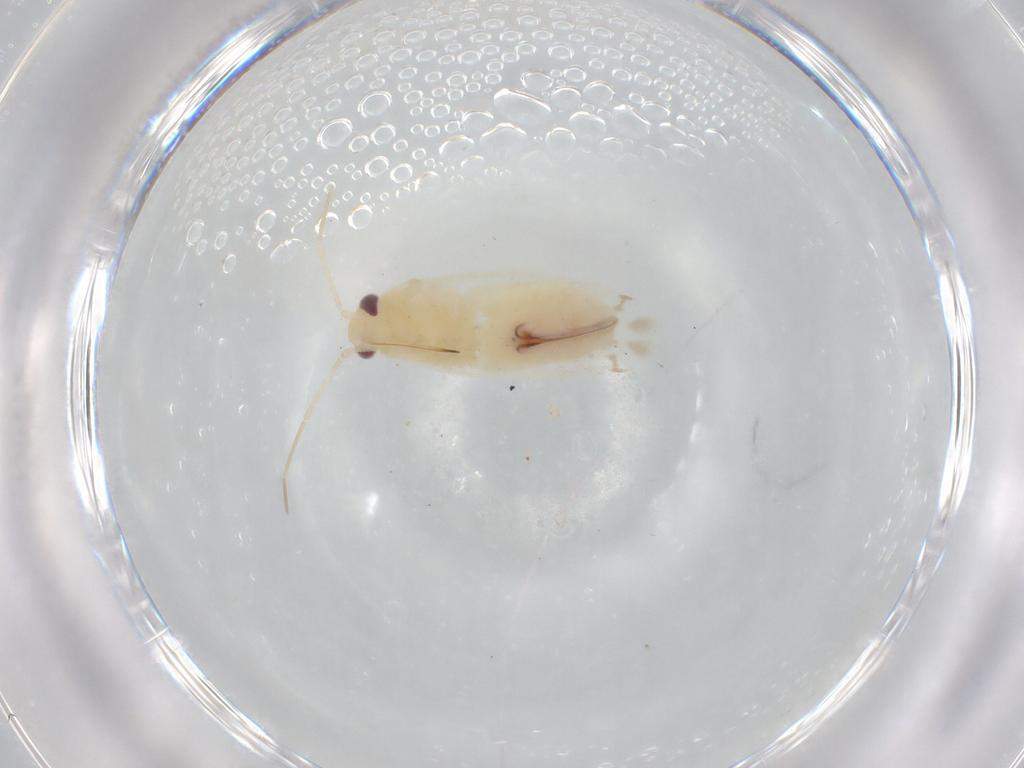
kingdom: Animalia
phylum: Arthropoda
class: Insecta
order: Hemiptera
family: Miridae
